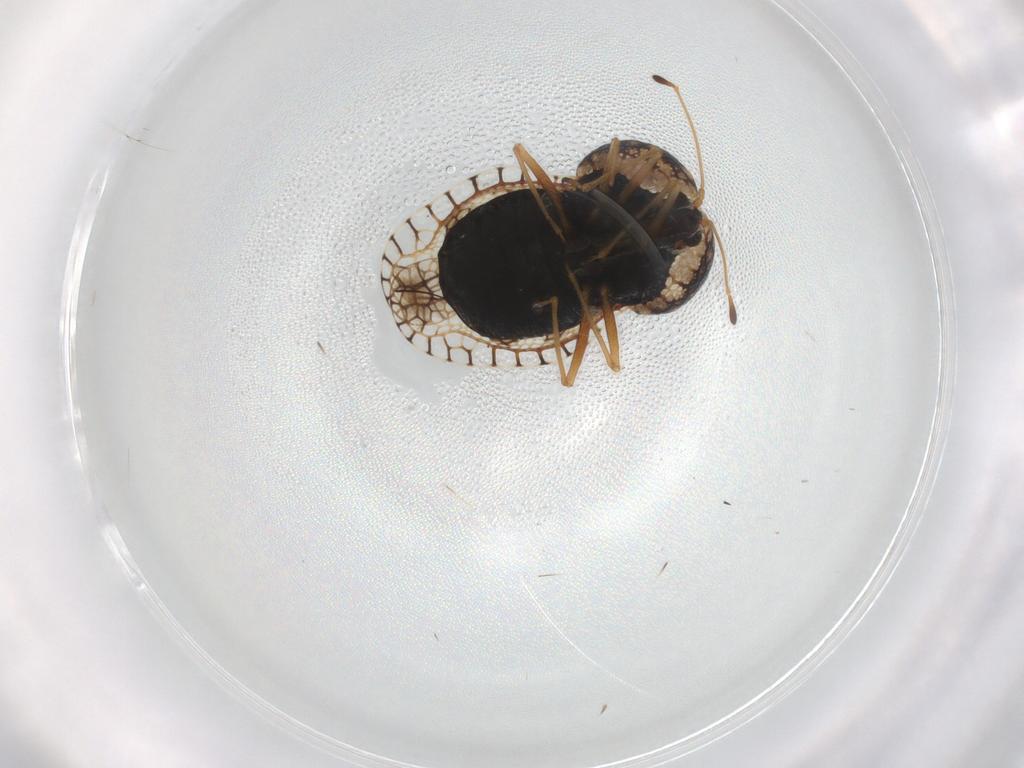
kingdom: Animalia
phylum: Arthropoda
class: Insecta
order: Hemiptera
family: Tingidae
